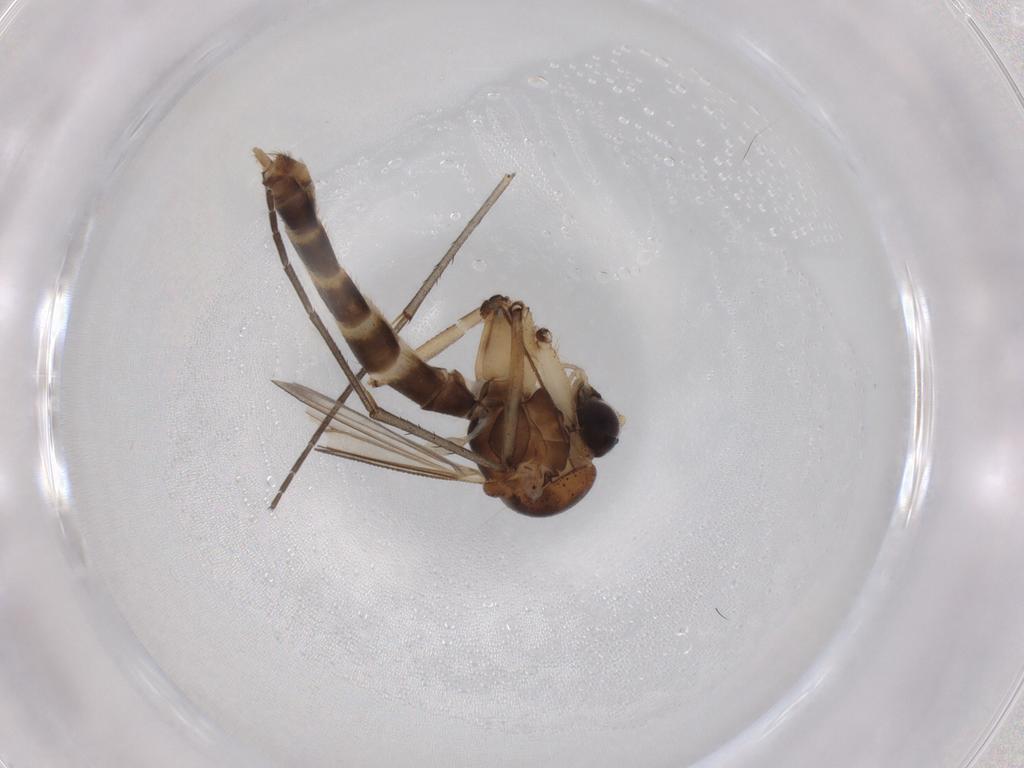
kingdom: Animalia
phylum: Arthropoda
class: Insecta
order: Diptera
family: Mycetophilidae
